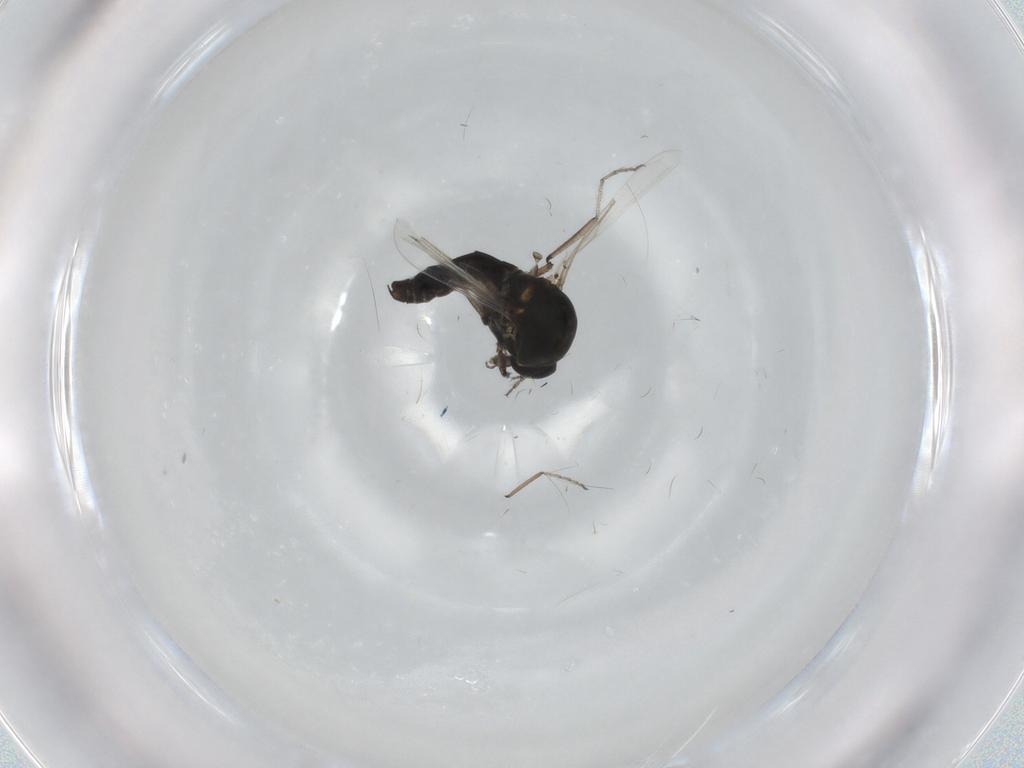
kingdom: Animalia
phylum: Arthropoda
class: Insecta
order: Diptera
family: Ceratopogonidae
